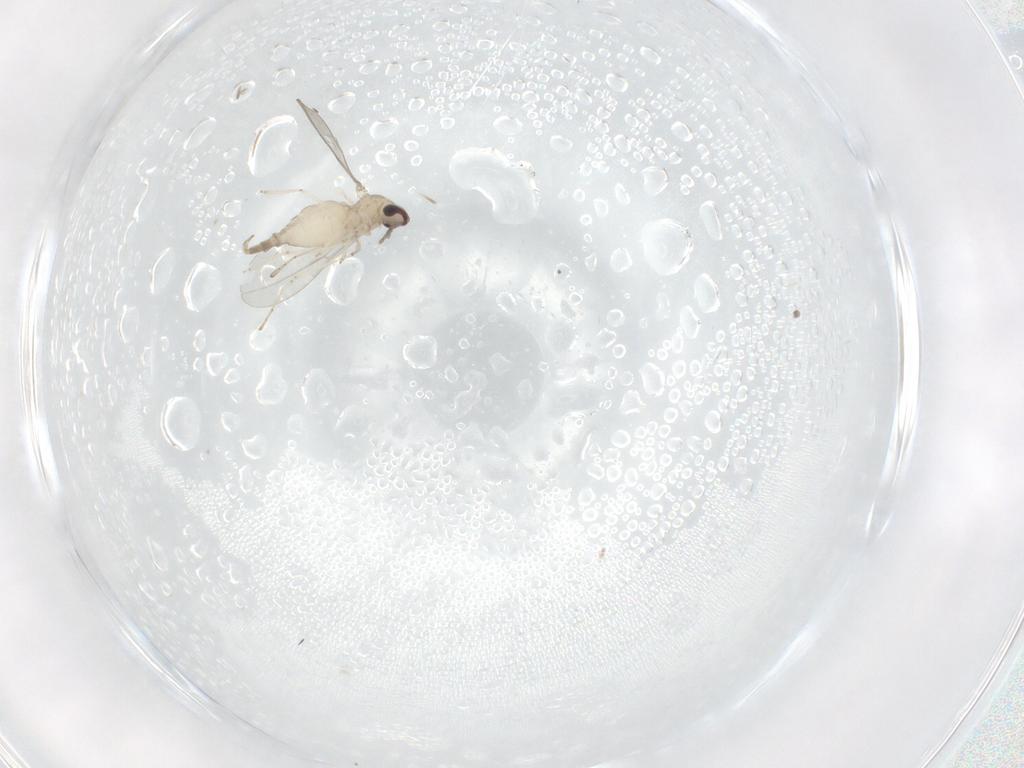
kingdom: Animalia
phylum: Arthropoda
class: Insecta
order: Diptera
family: Cecidomyiidae
